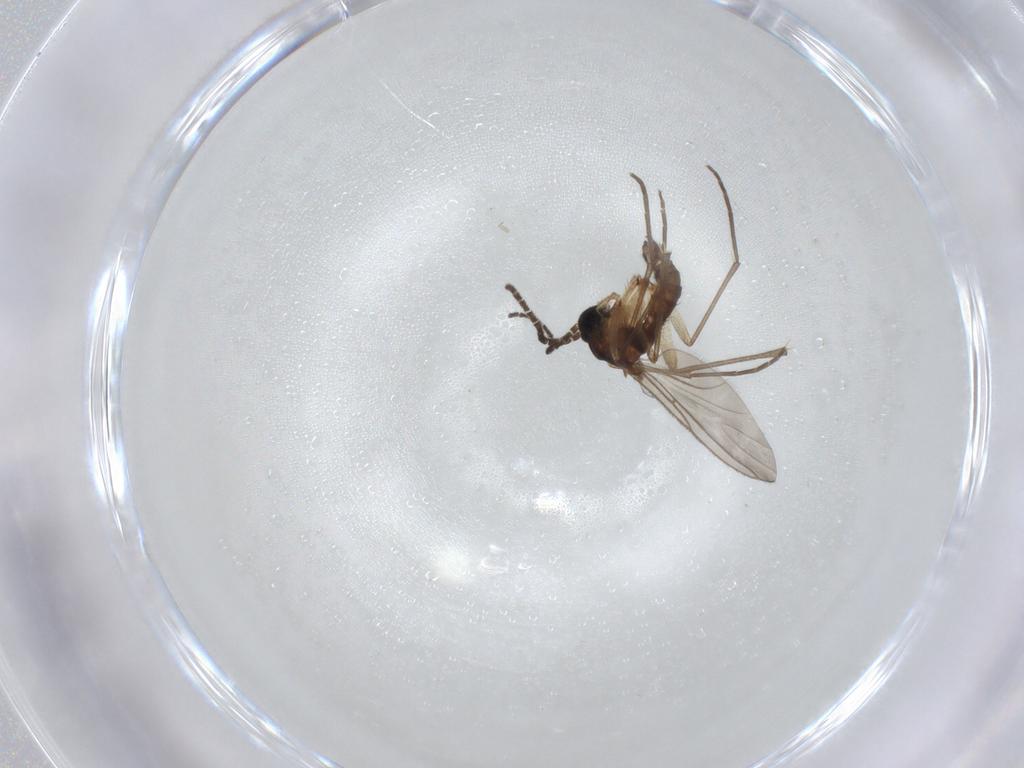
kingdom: Animalia
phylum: Arthropoda
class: Insecta
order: Diptera
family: Sciaridae
